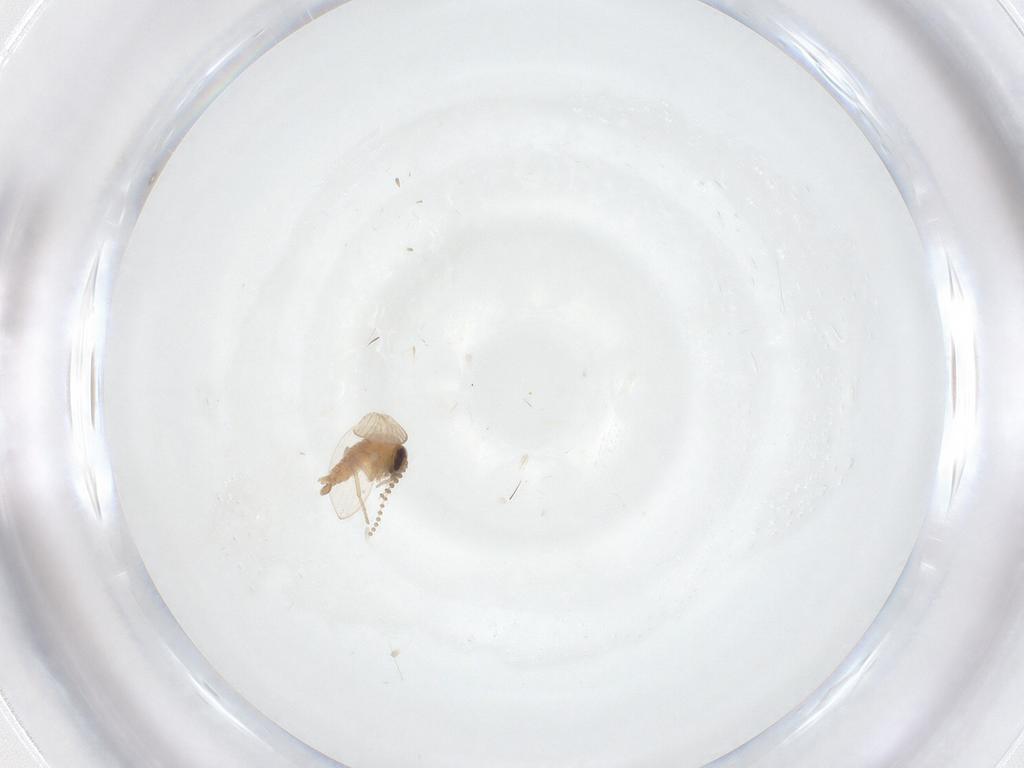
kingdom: Animalia
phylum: Arthropoda
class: Insecta
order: Diptera
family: Psychodidae
